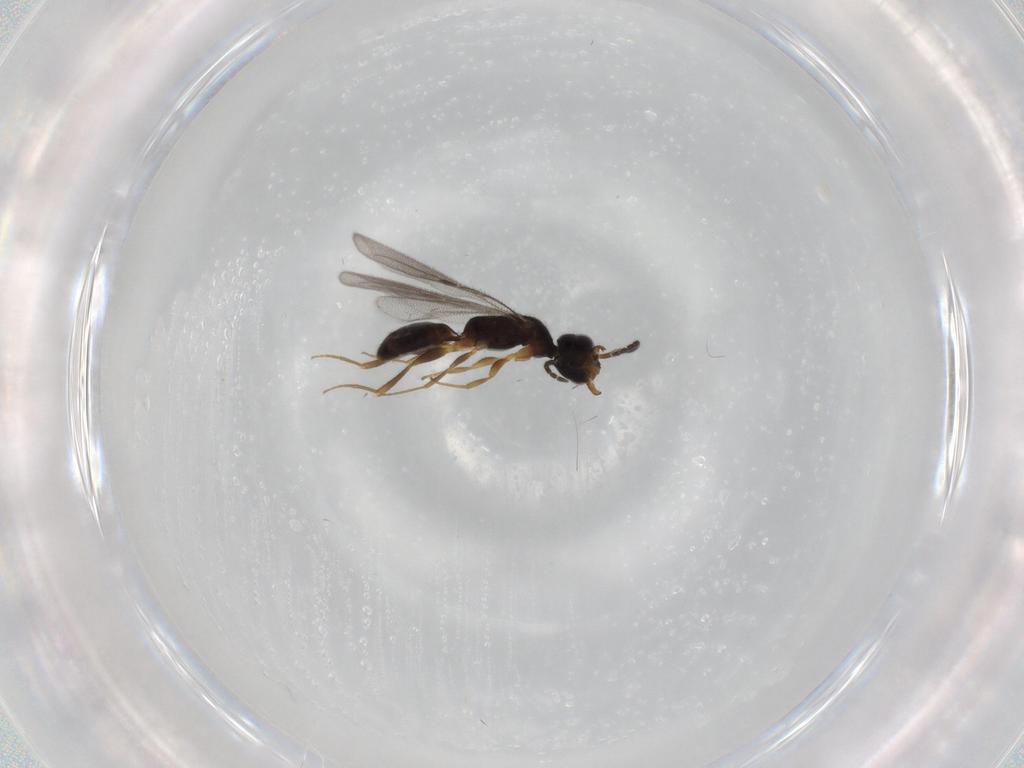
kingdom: Animalia
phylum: Arthropoda
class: Insecta
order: Hymenoptera
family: Bethylidae
